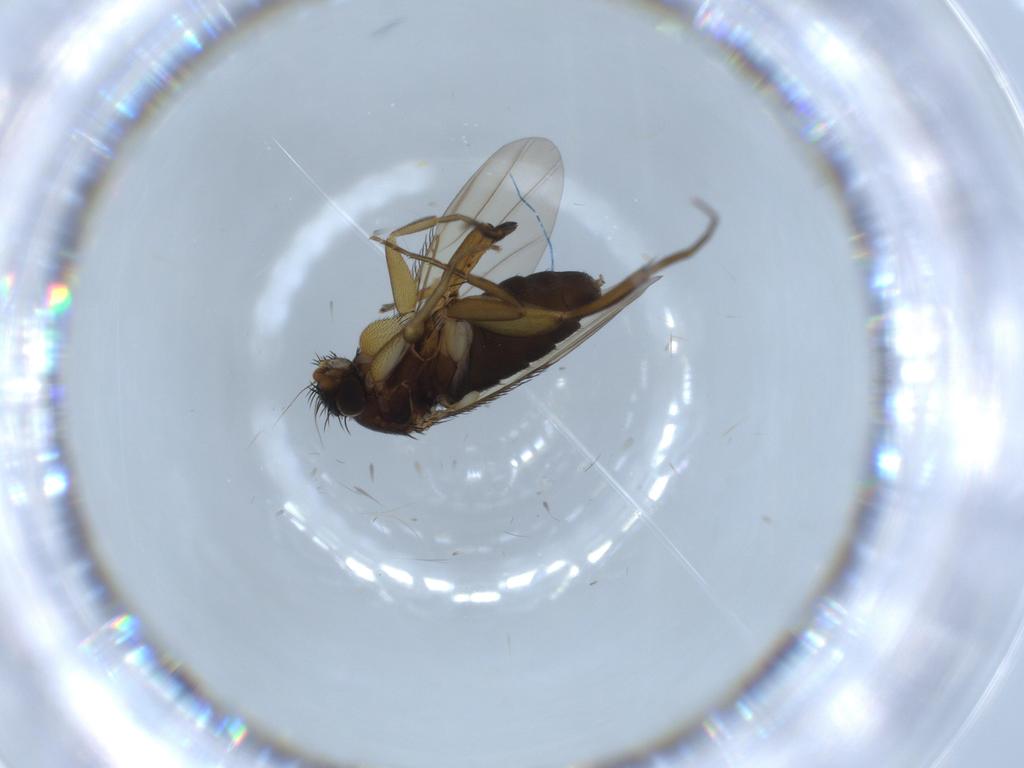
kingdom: Animalia
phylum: Arthropoda
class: Insecta
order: Diptera
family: Phoridae
